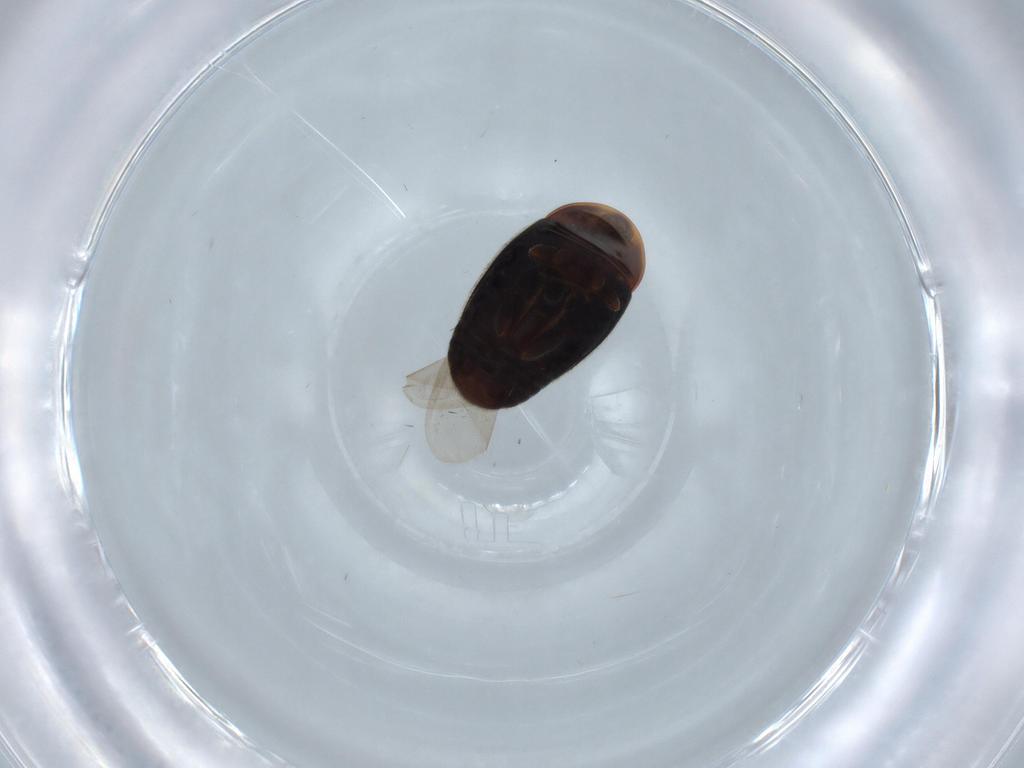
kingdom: Animalia
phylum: Arthropoda
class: Insecta
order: Coleoptera
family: Corylophidae
